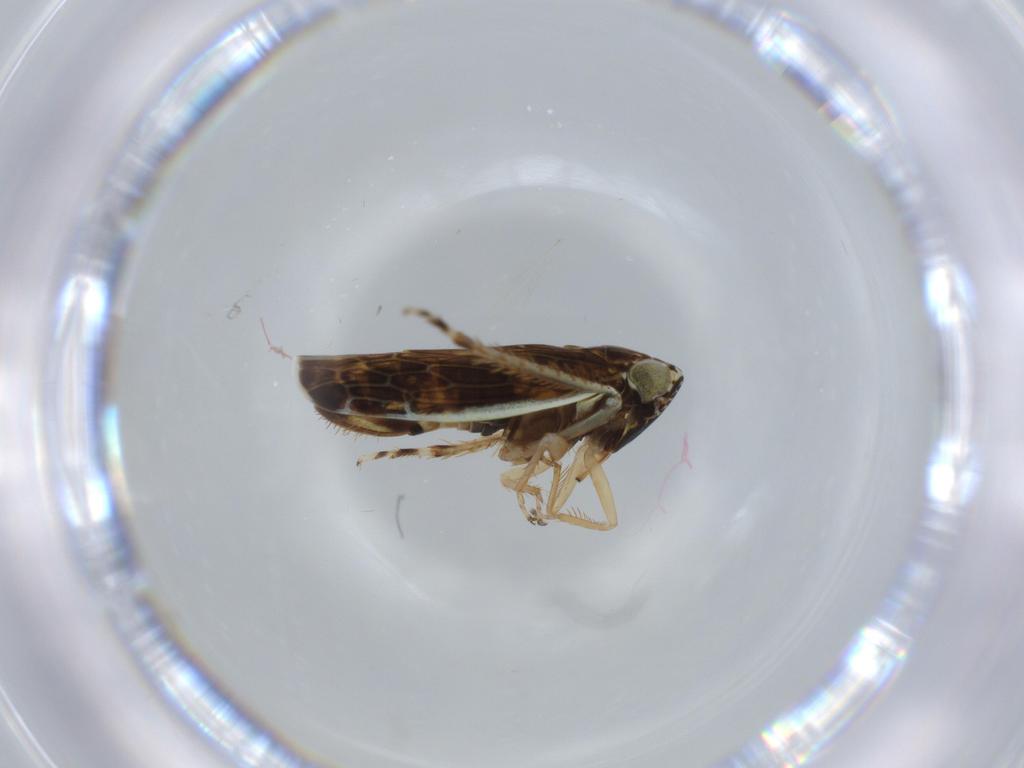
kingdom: Animalia
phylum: Arthropoda
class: Insecta
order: Hemiptera
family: Cicadellidae
